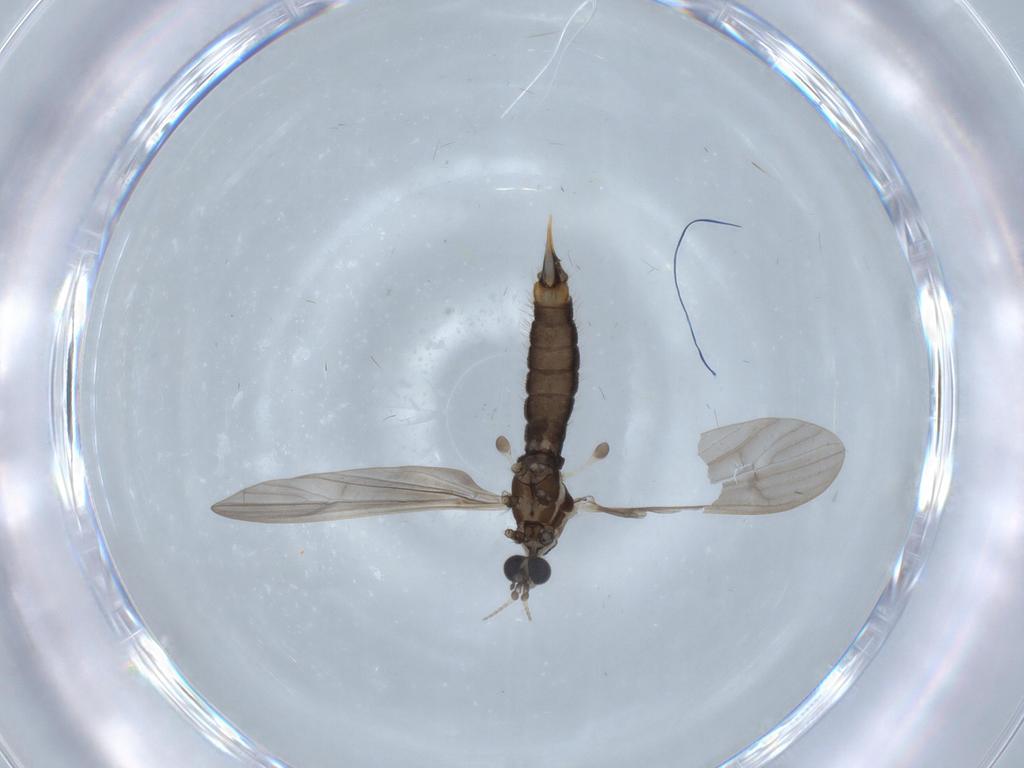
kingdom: Animalia
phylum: Arthropoda
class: Insecta
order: Diptera
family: Limoniidae
